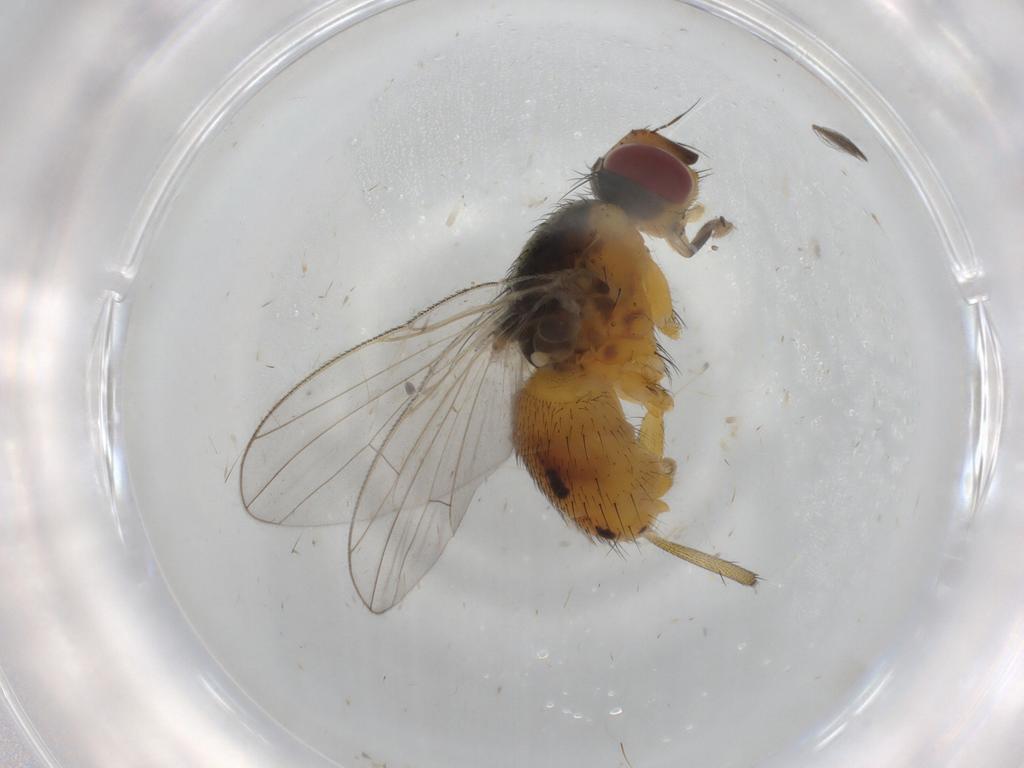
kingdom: Animalia
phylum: Arthropoda
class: Insecta
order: Diptera
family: Muscidae
